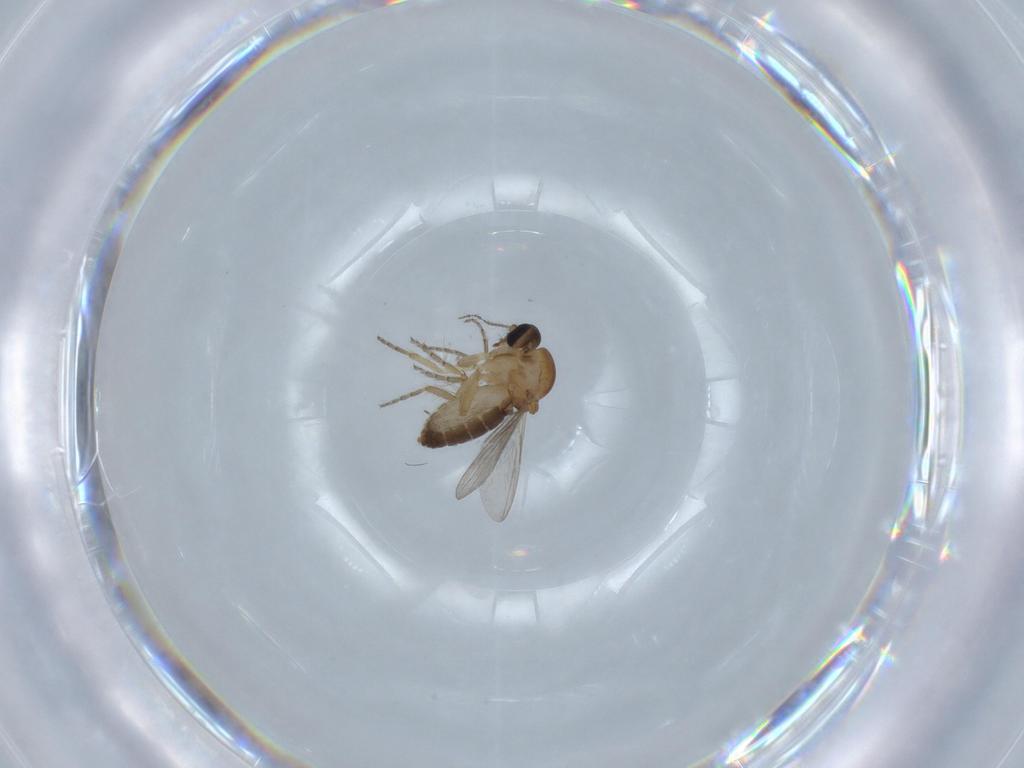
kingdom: Animalia
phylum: Arthropoda
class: Insecta
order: Diptera
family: Ceratopogonidae
